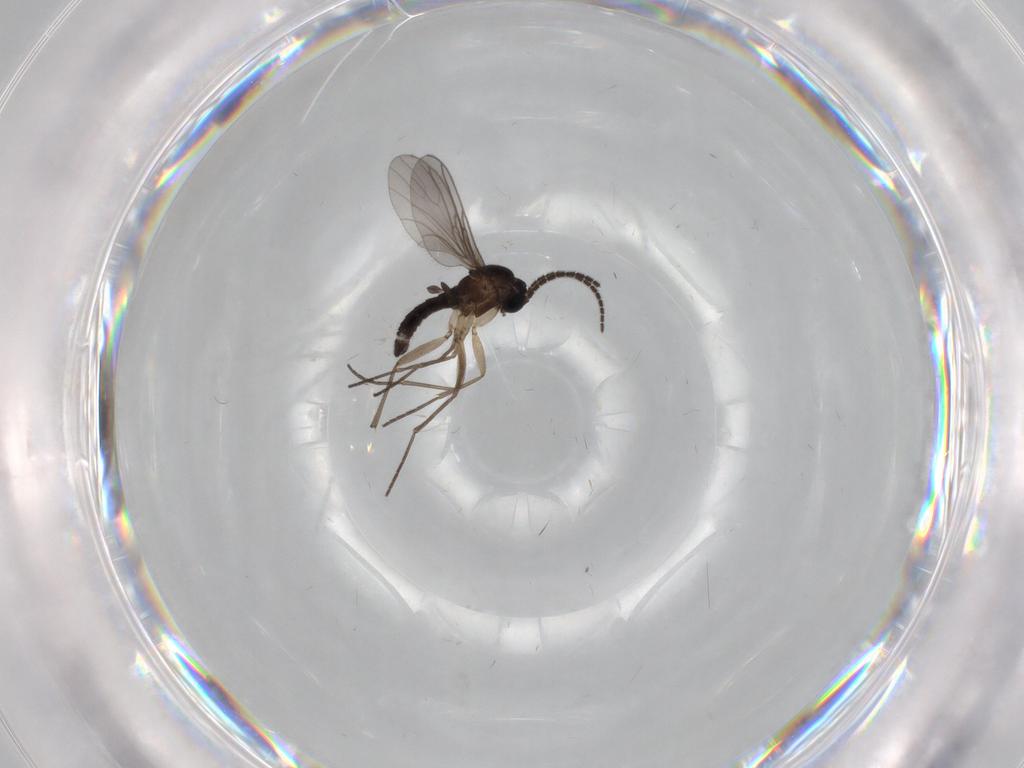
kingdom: Animalia
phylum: Arthropoda
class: Insecta
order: Diptera
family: Sciaridae
